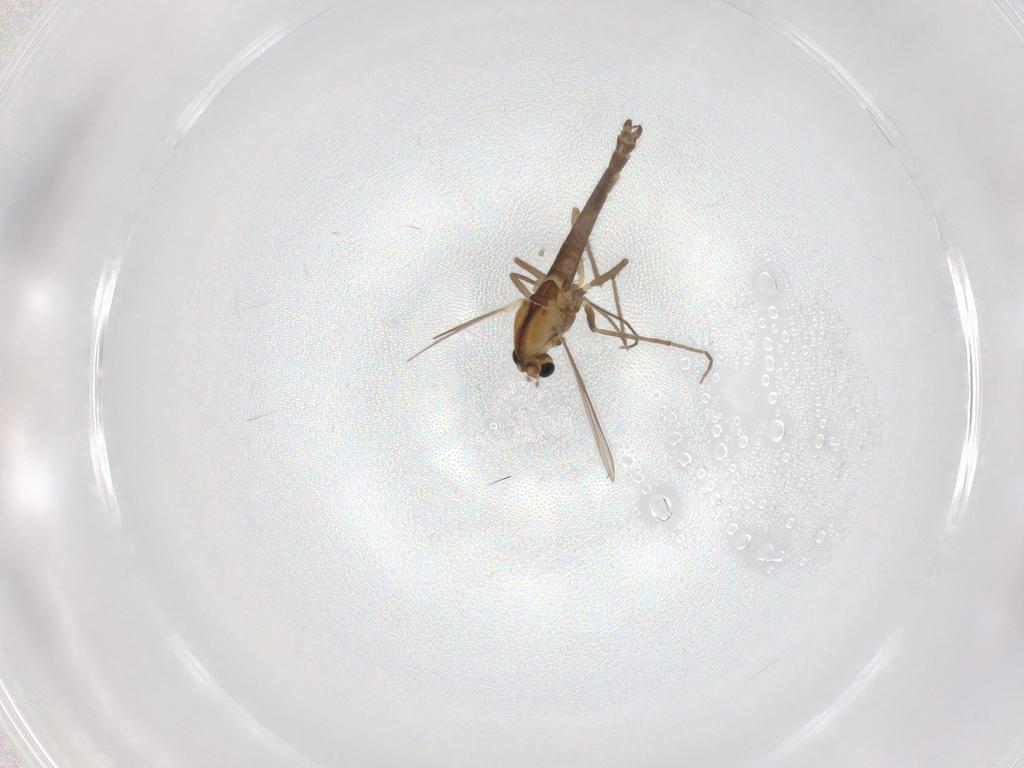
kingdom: Animalia
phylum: Arthropoda
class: Insecta
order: Diptera
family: Chironomidae
